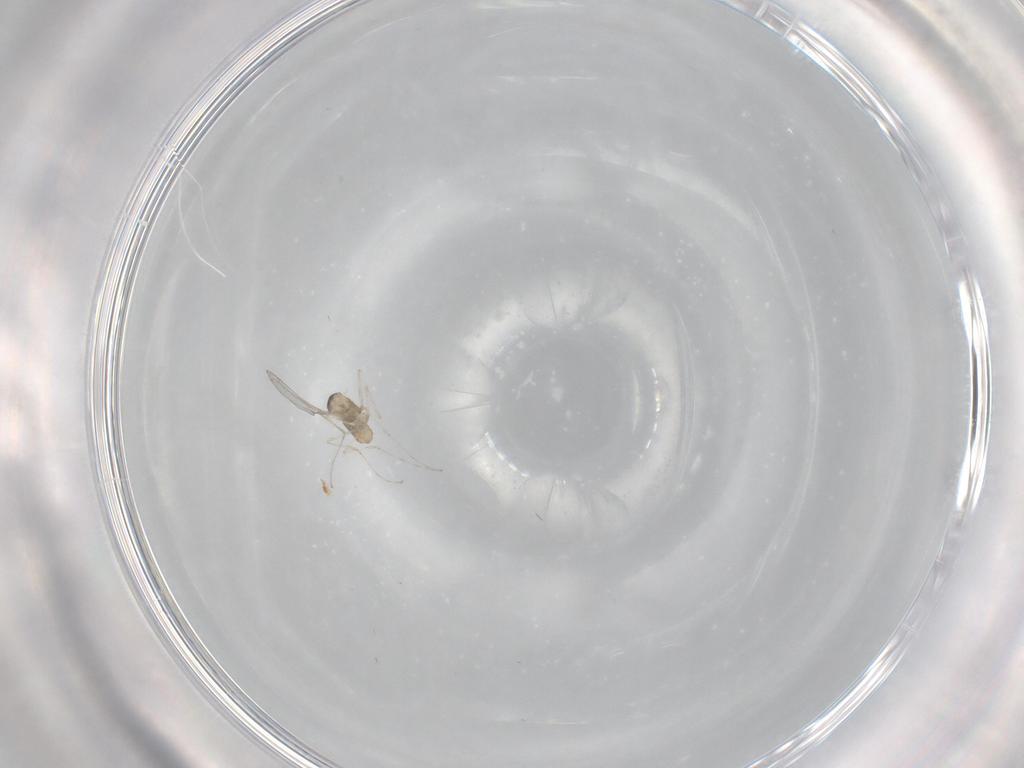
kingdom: Animalia
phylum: Arthropoda
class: Insecta
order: Diptera
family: Cecidomyiidae
